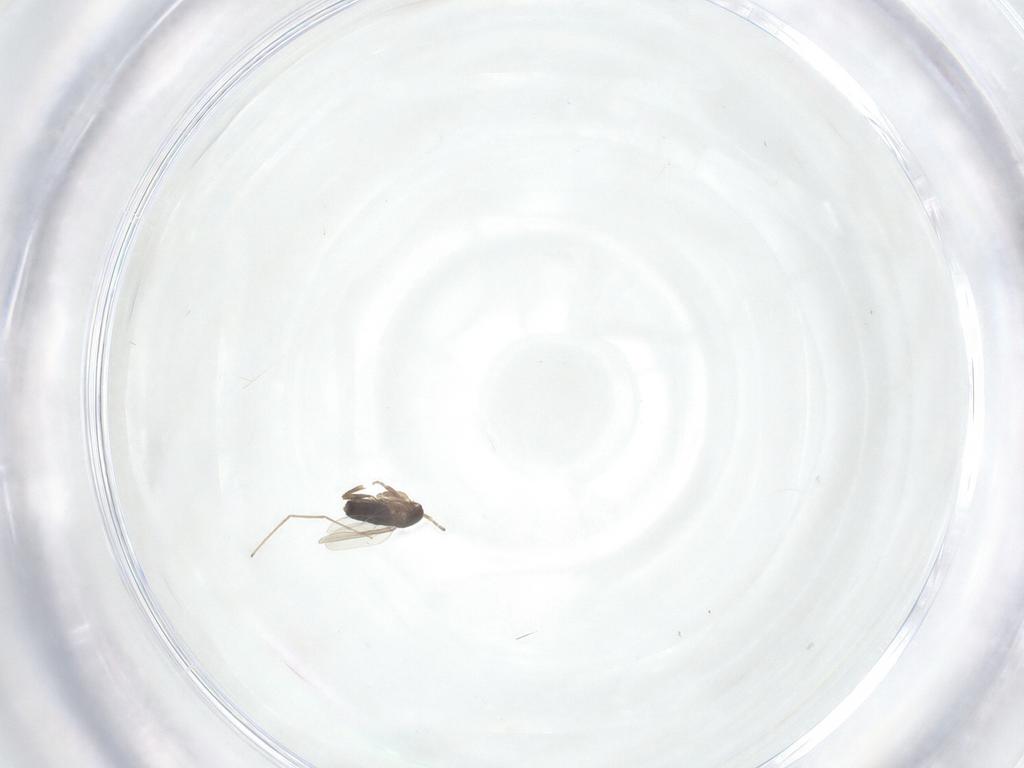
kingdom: Animalia
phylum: Arthropoda
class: Insecta
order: Diptera
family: Phoridae
